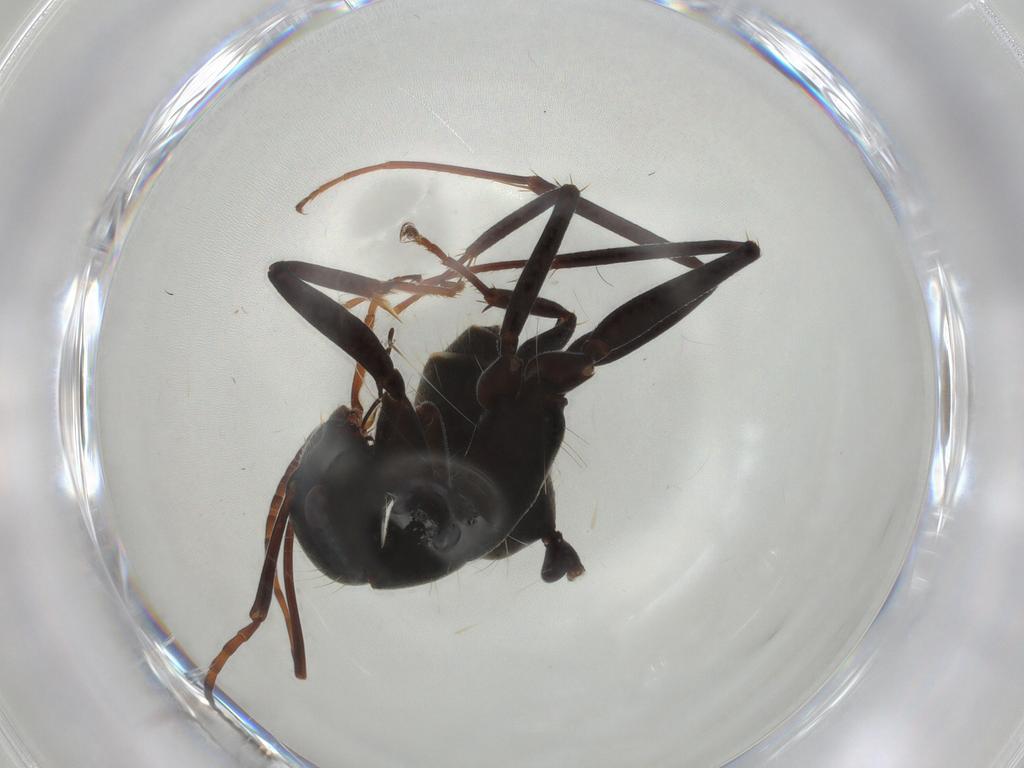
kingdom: Animalia
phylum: Arthropoda
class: Insecta
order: Hymenoptera
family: Formicidae
